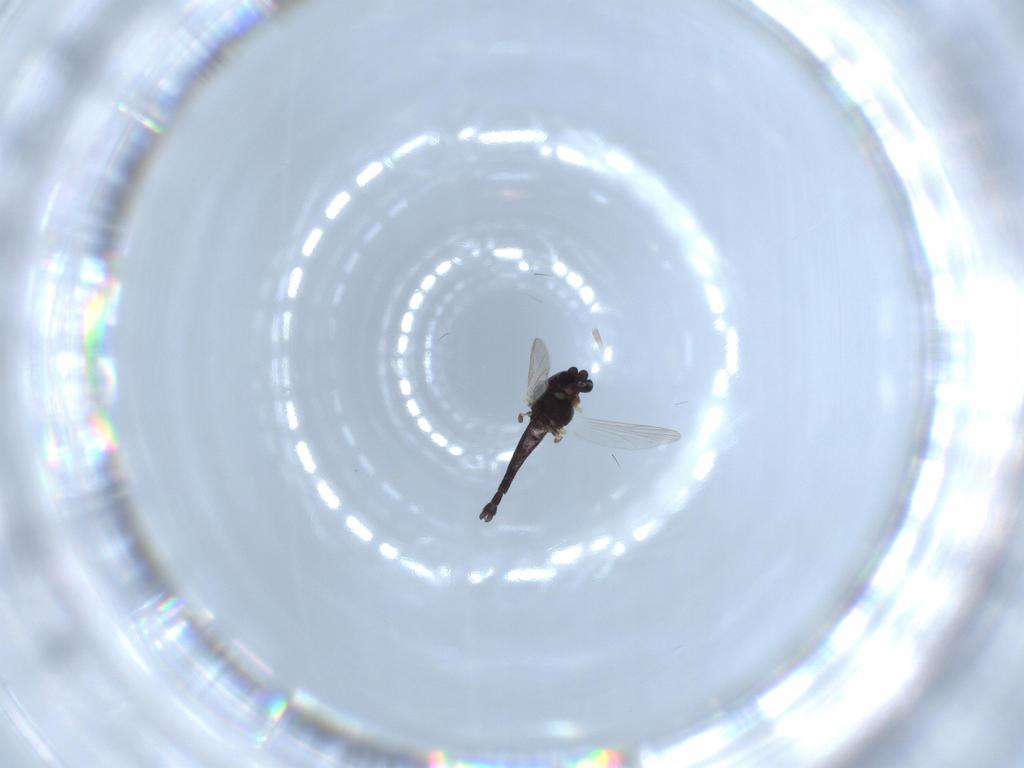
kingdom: Animalia
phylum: Arthropoda
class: Insecta
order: Diptera
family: Chironomidae
